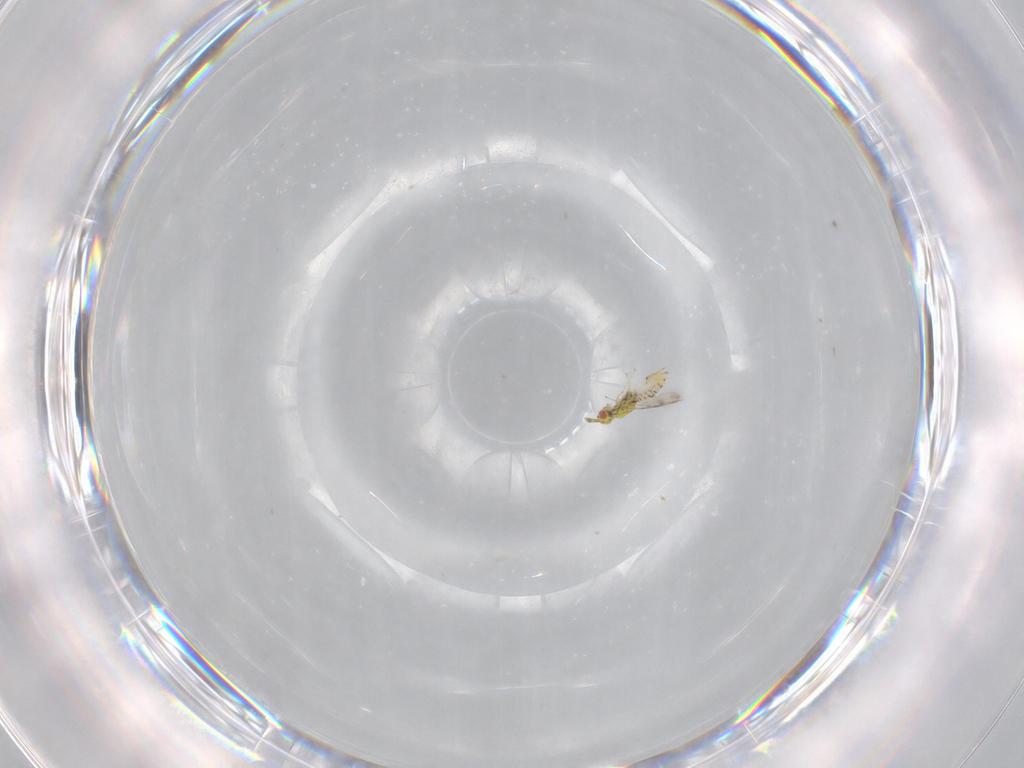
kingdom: Animalia
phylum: Arthropoda
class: Insecta
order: Hymenoptera
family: Eulophidae
